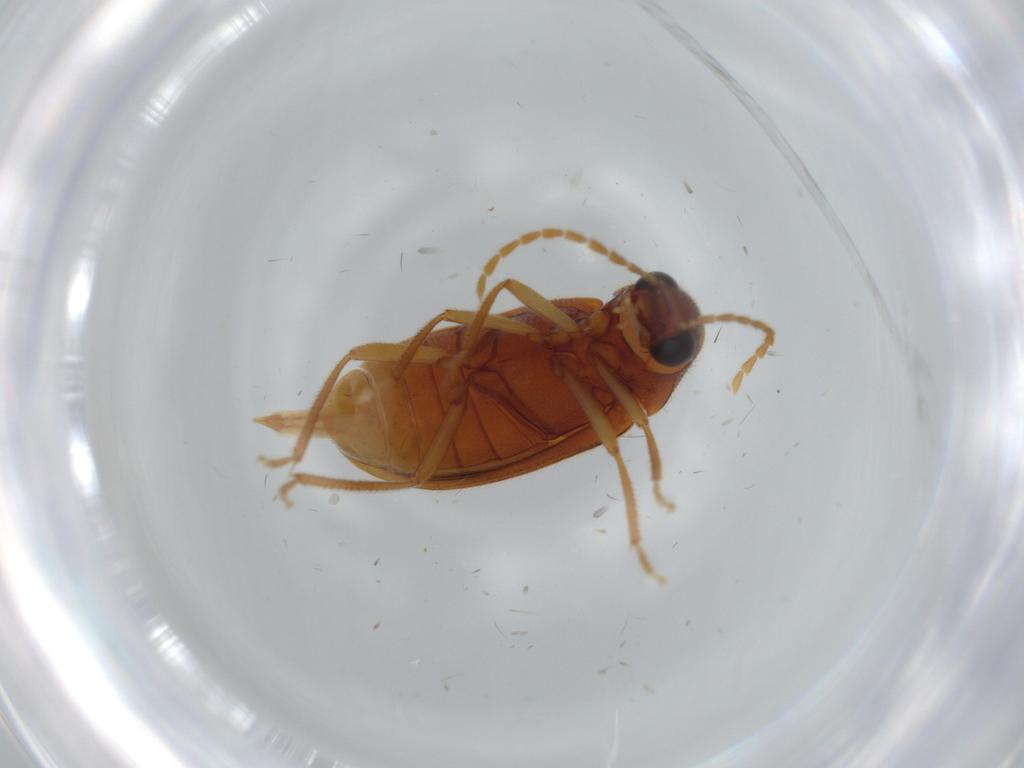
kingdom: Animalia
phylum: Arthropoda
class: Insecta
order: Coleoptera
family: Ptilodactylidae
